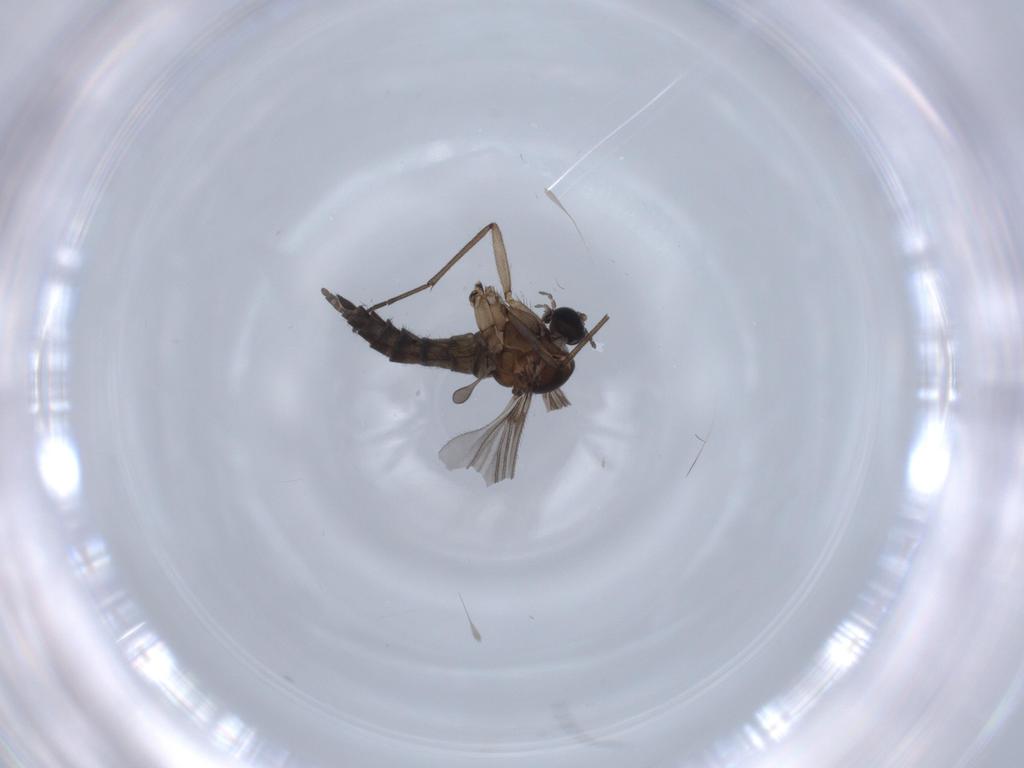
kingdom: Animalia
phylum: Arthropoda
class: Insecta
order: Diptera
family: Sciaridae
